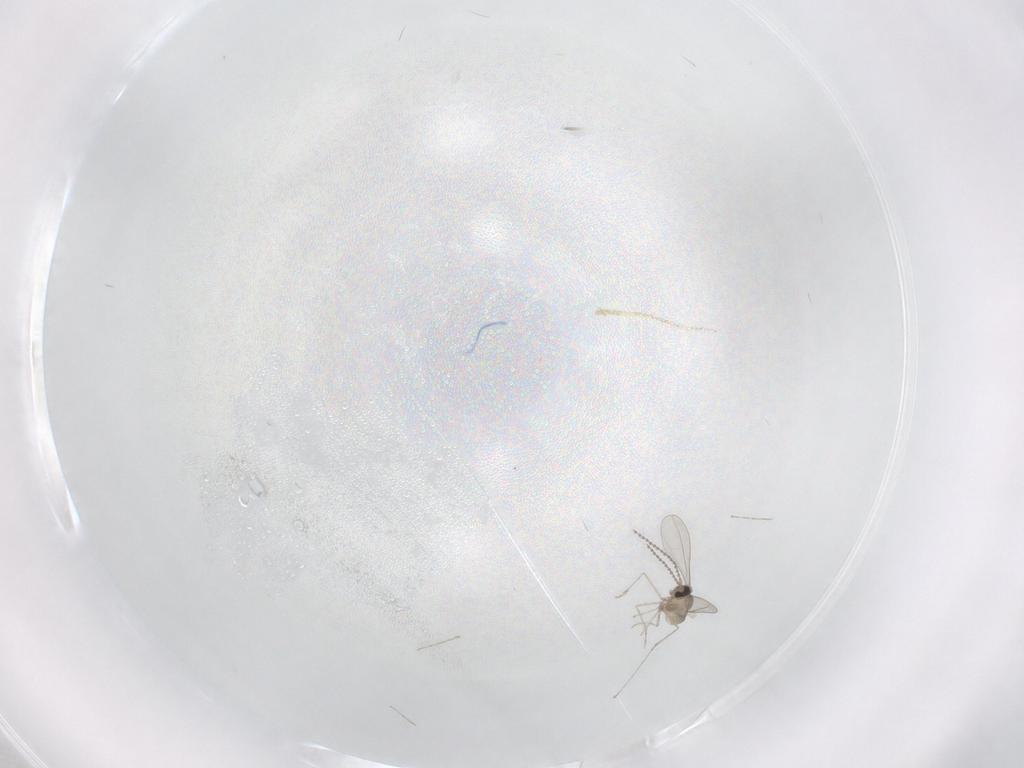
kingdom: Animalia
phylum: Arthropoda
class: Insecta
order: Diptera
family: Cecidomyiidae
